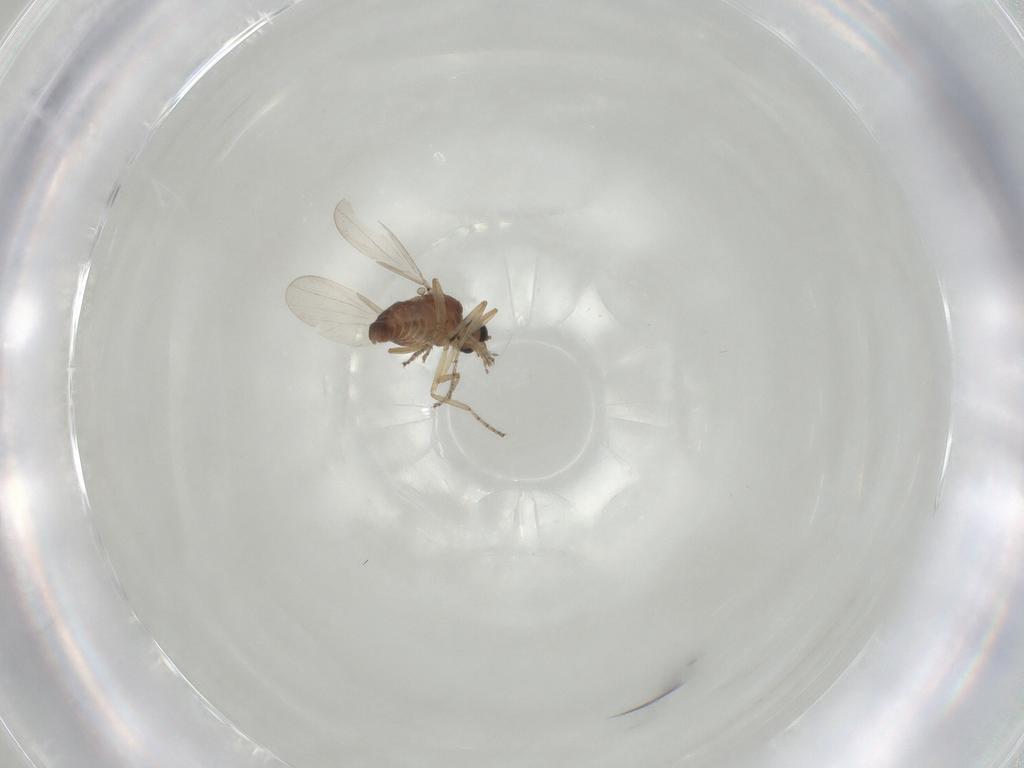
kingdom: Animalia
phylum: Arthropoda
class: Insecta
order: Diptera
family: Ceratopogonidae
